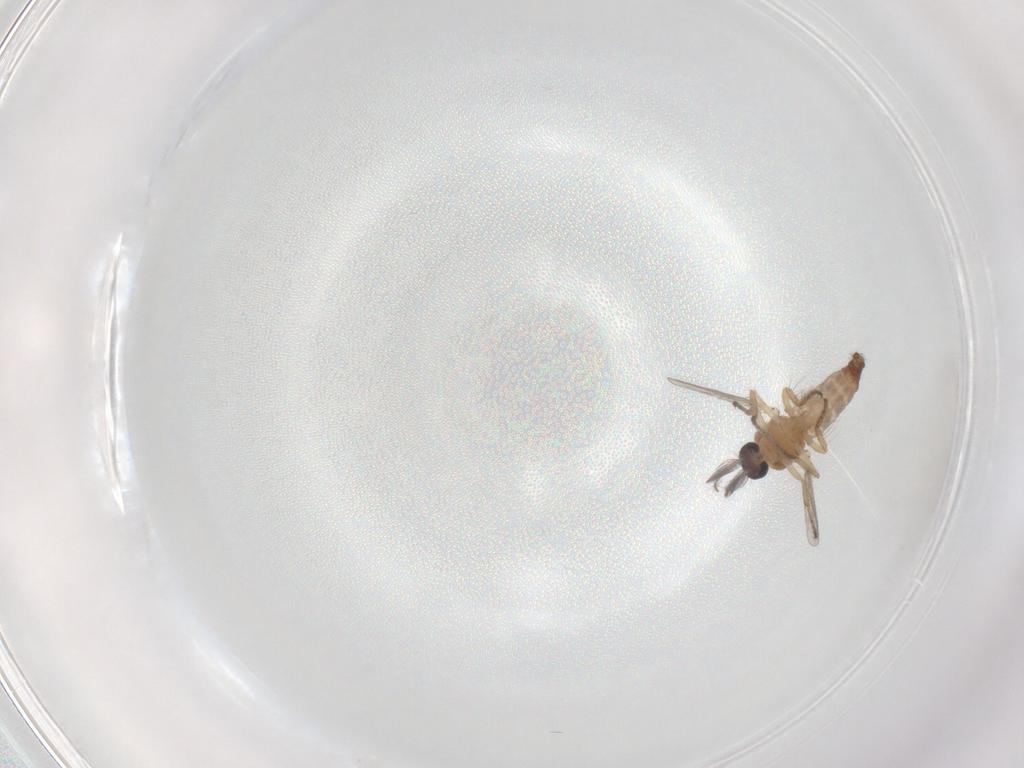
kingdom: Animalia
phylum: Arthropoda
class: Insecta
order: Diptera
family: Ceratopogonidae
